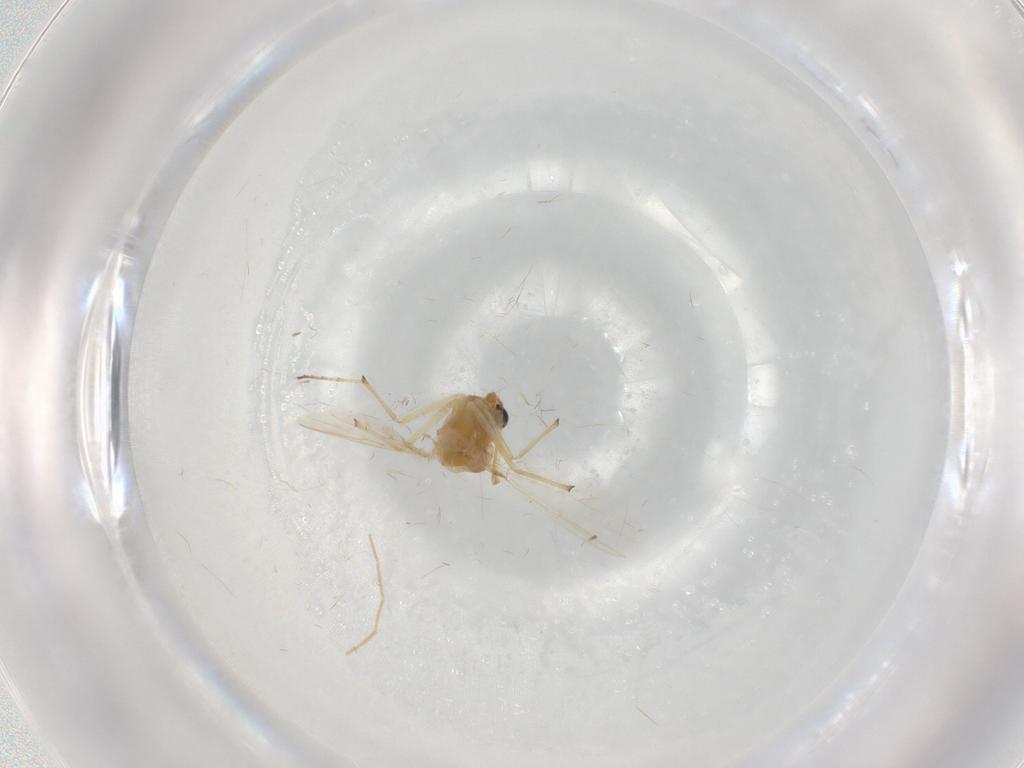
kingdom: Animalia
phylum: Arthropoda
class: Insecta
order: Diptera
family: Chironomidae
